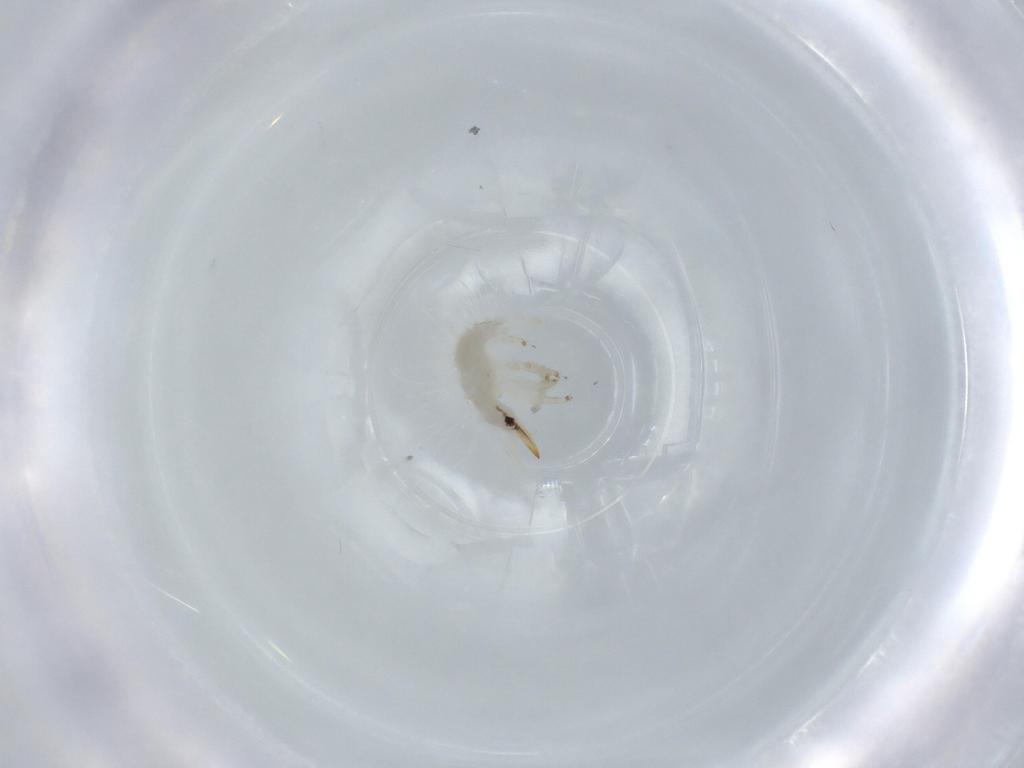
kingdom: Animalia
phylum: Arthropoda
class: Insecta
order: Neuroptera
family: Chrysopidae
